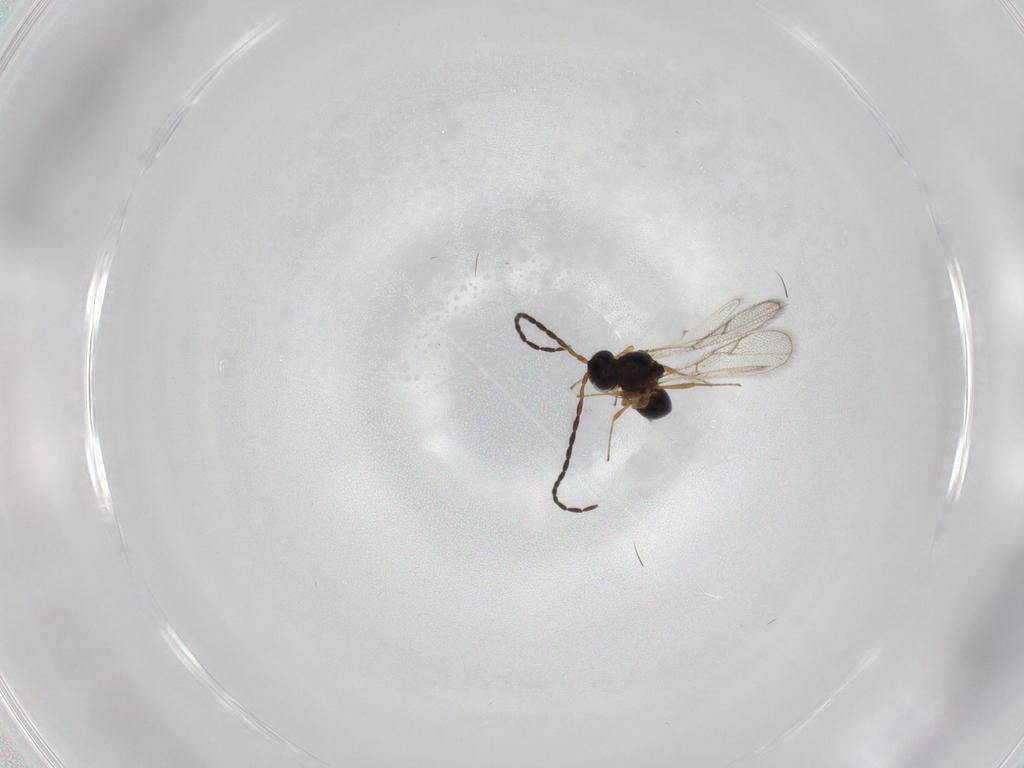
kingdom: Animalia
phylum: Arthropoda
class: Insecta
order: Hymenoptera
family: Figitidae
